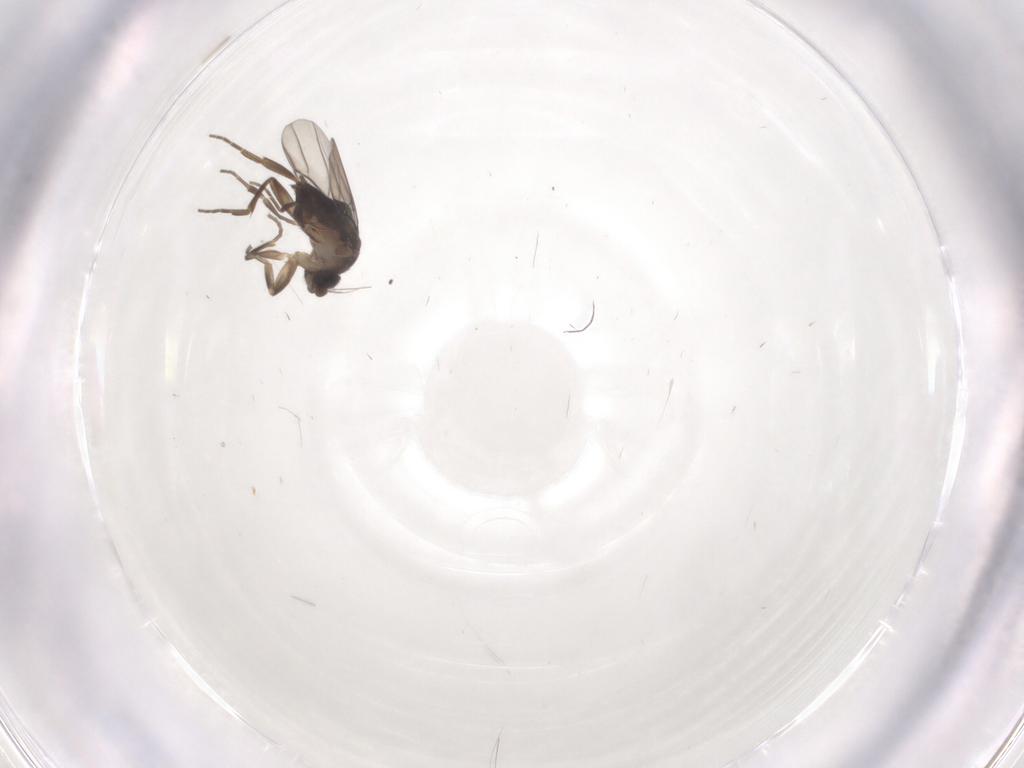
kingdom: Animalia
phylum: Arthropoda
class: Insecta
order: Diptera
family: Phoridae
